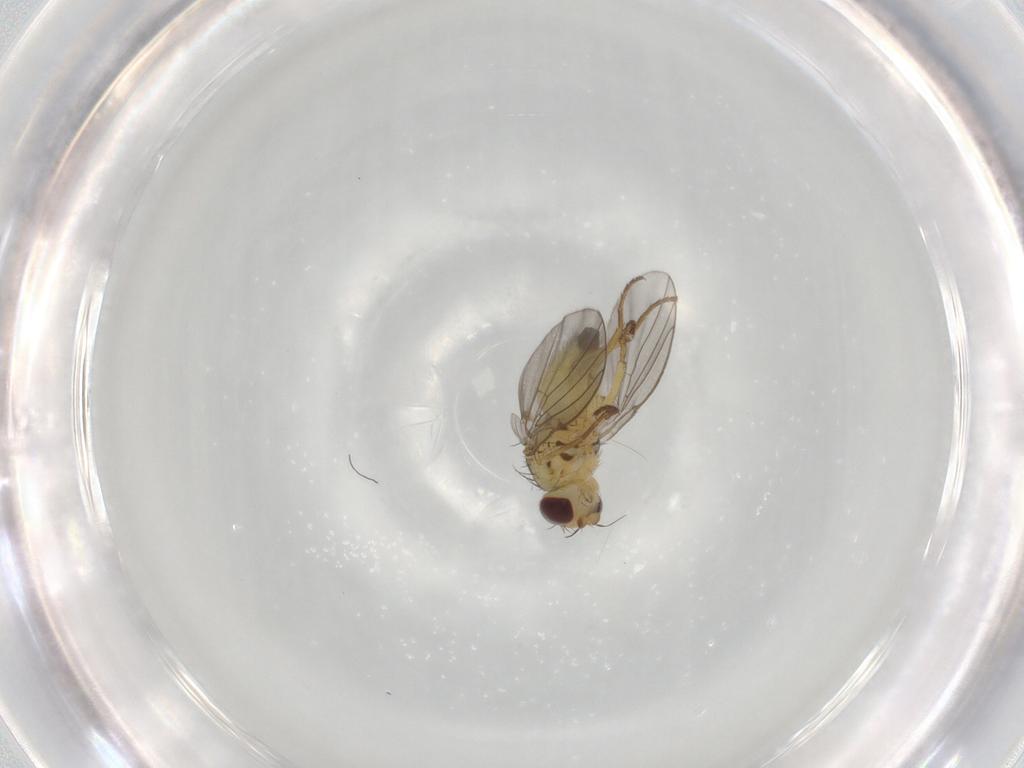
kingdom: Animalia
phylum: Arthropoda
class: Insecta
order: Diptera
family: Agromyzidae
